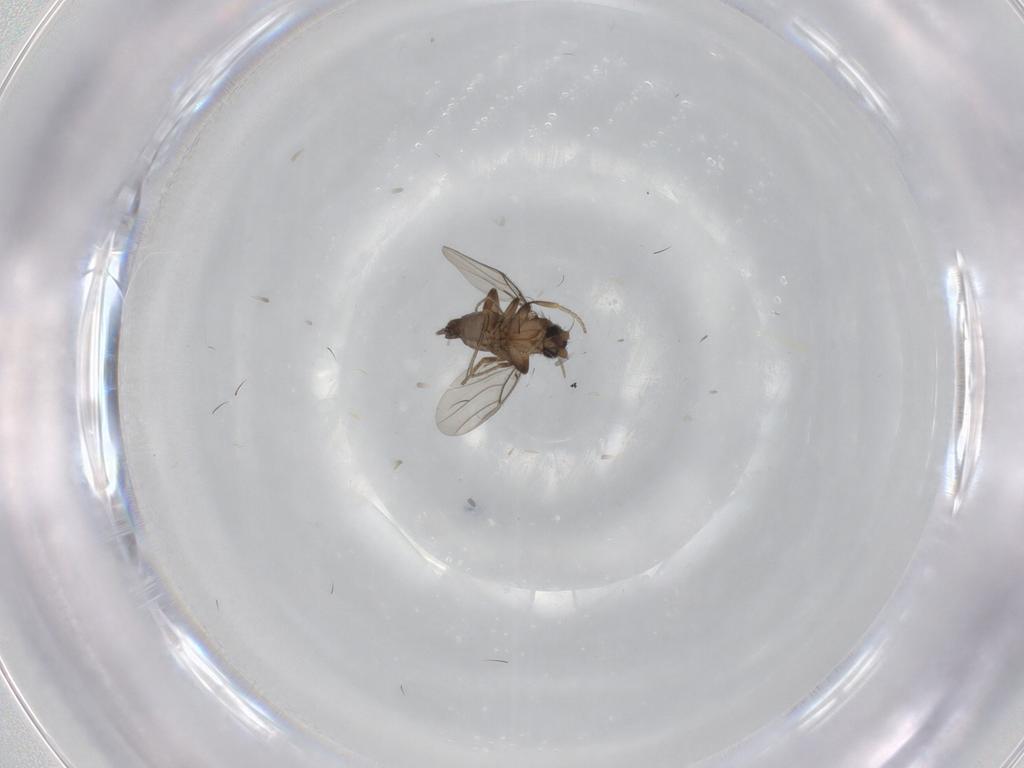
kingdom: Animalia
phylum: Arthropoda
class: Insecta
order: Diptera
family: Phoridae
